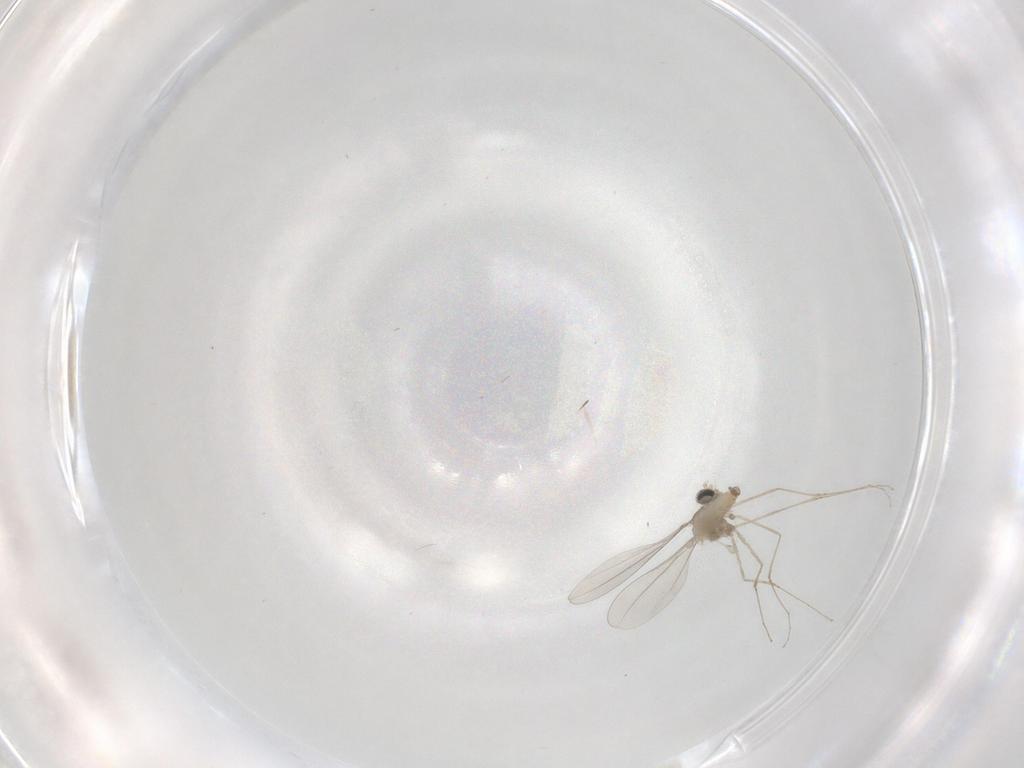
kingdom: Animalia
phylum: Arthropoda
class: Insecta
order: Diptera
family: Cecidomyiidae
